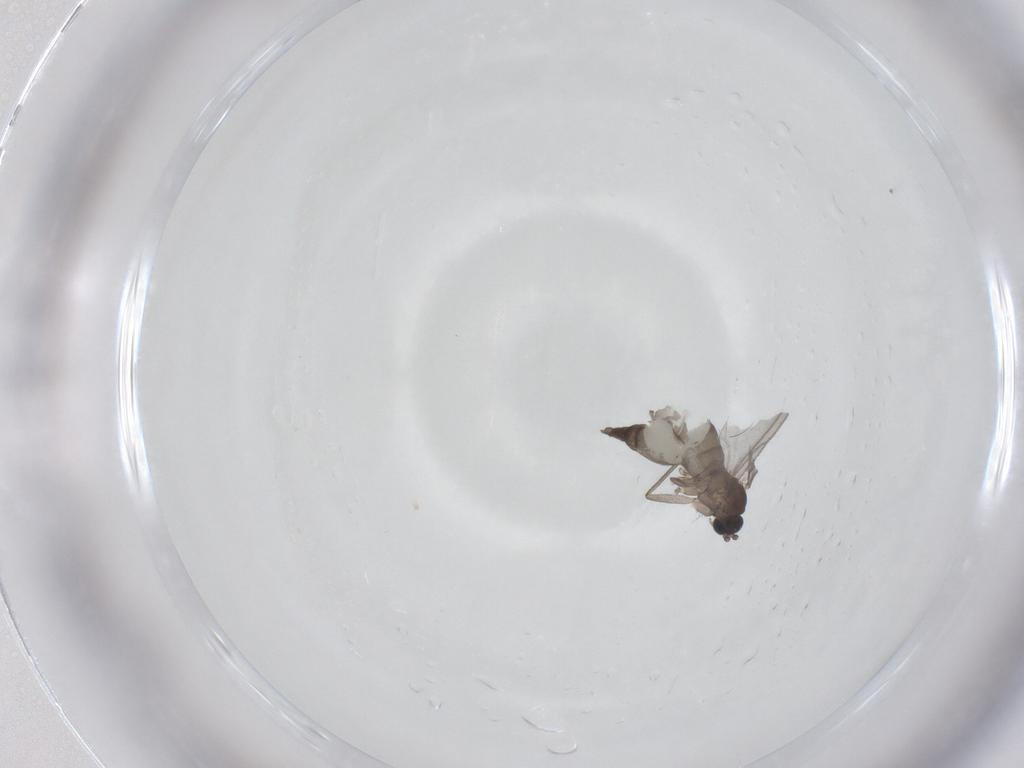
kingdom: Animalia
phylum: Arthropoda
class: Insecta
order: Diptera
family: Sciaridae
